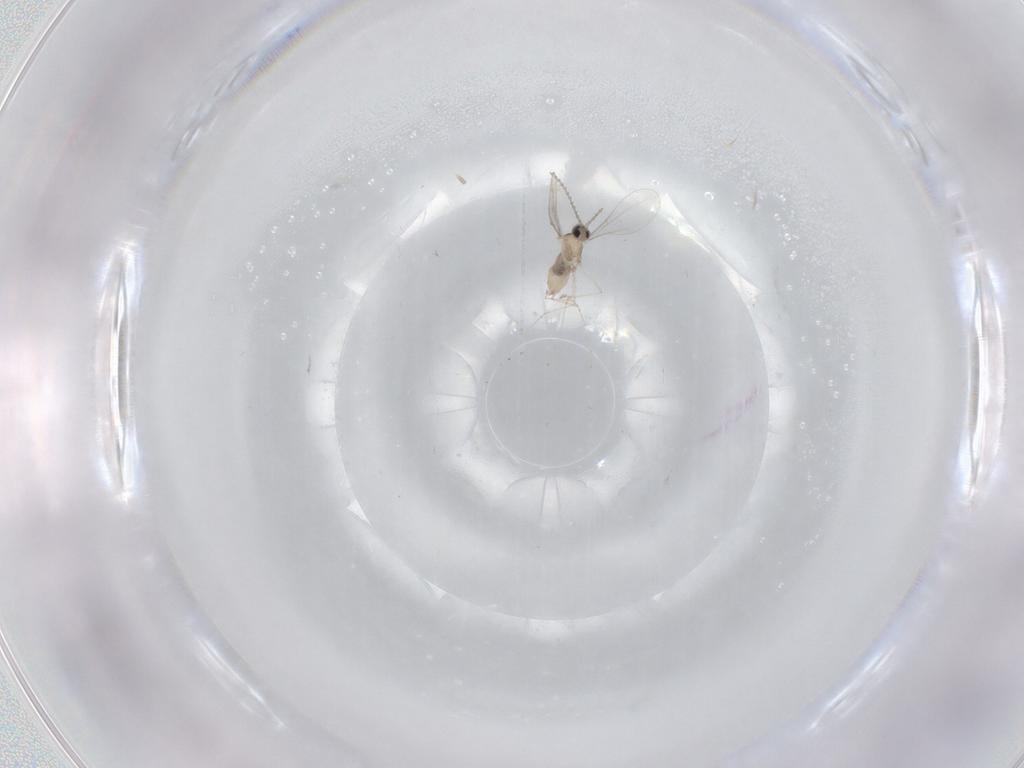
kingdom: Animalia
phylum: Arthropoda
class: Insecta
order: Diptera
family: Cecidomyiidae
